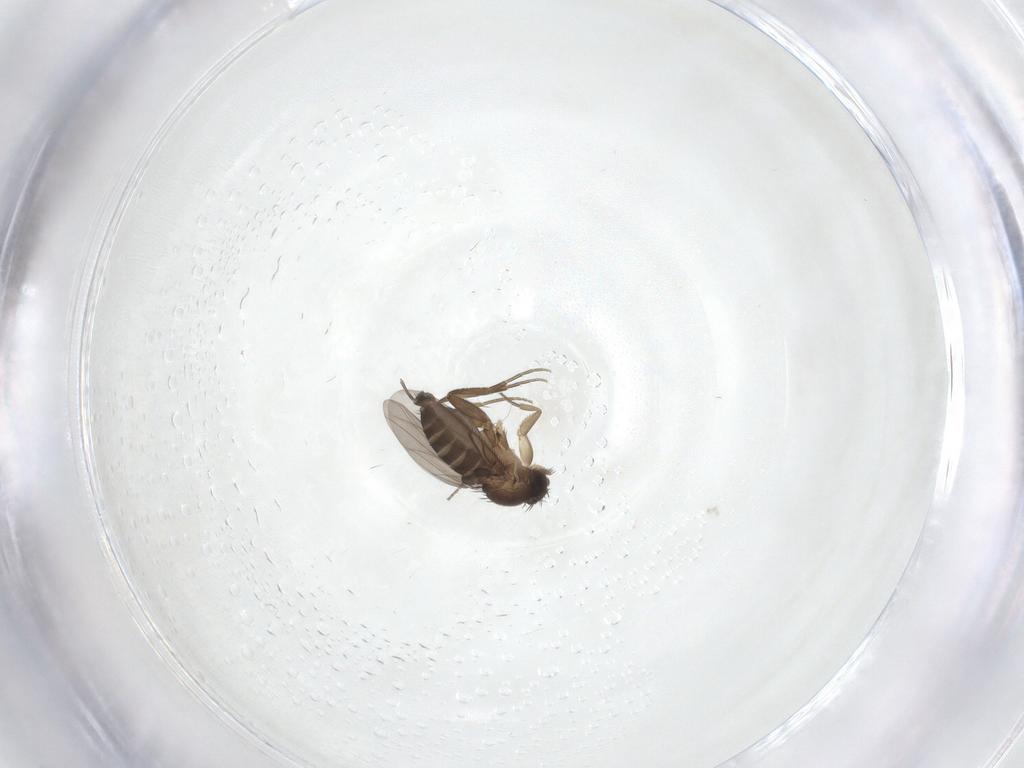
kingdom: Animalia
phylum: Arthropoda
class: Insecta
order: Diptera
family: Phoridae
